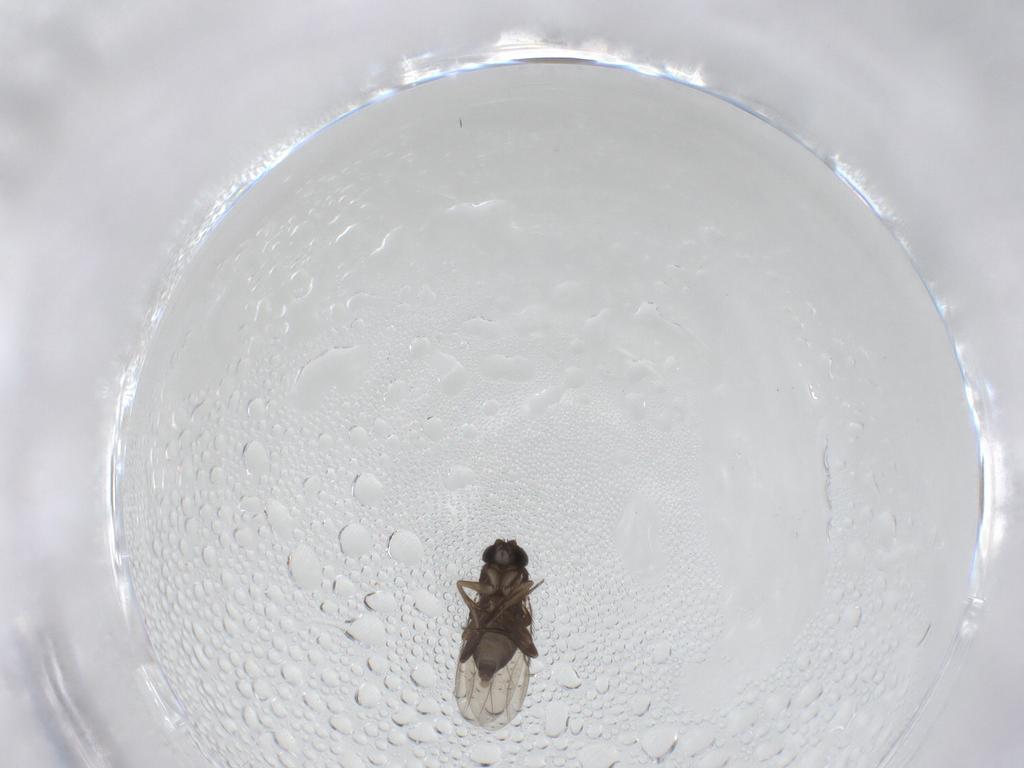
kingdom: Animalia
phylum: Arthropoda
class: Insecta
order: Diptera
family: Phoridae
